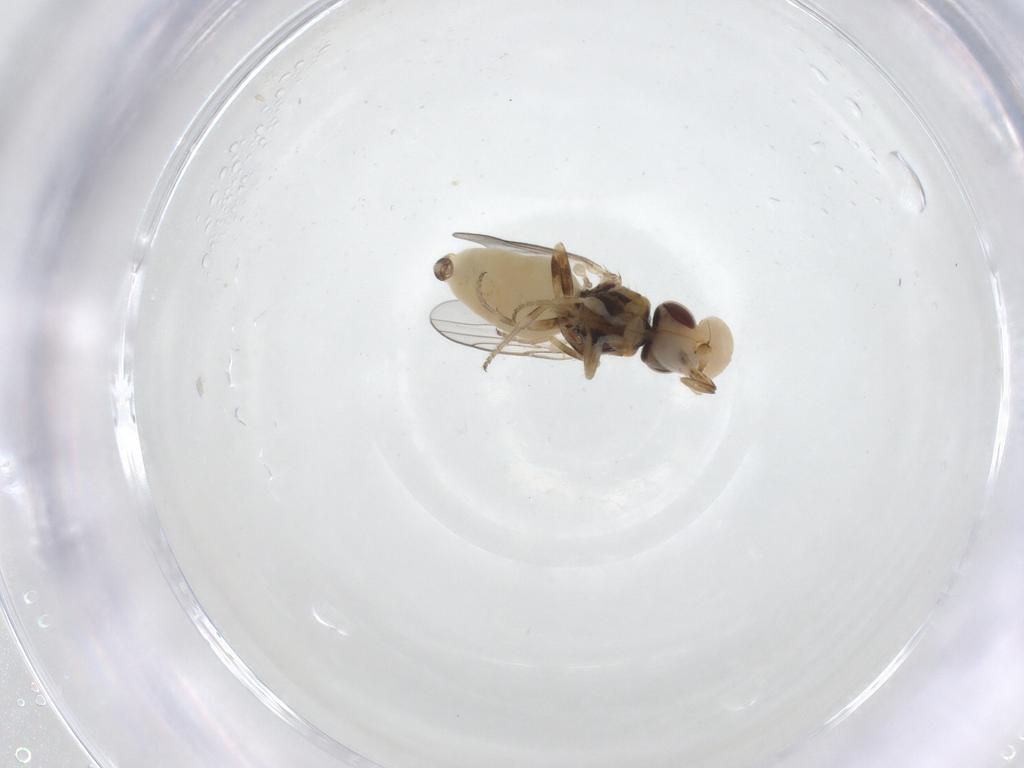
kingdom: Animalia
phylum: Arthropoda
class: Insecta
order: Diptera
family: Chloropidae
